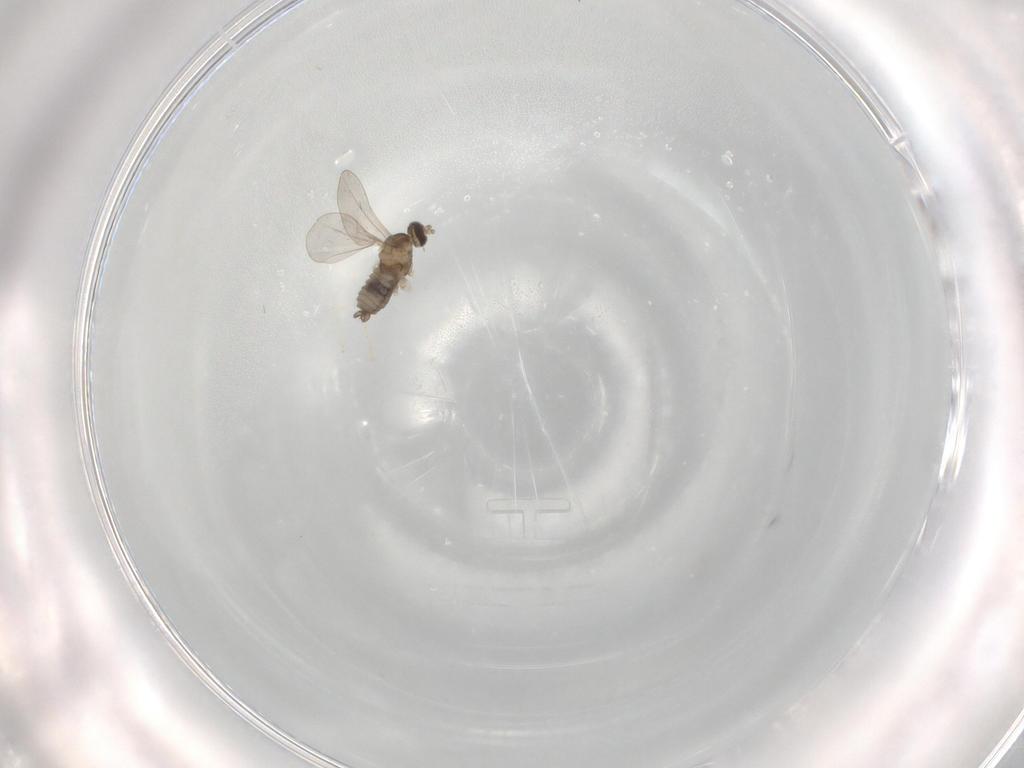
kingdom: Animalia
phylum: Arthropoda
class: Insecta
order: Diptera
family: Cecidomyiidae
